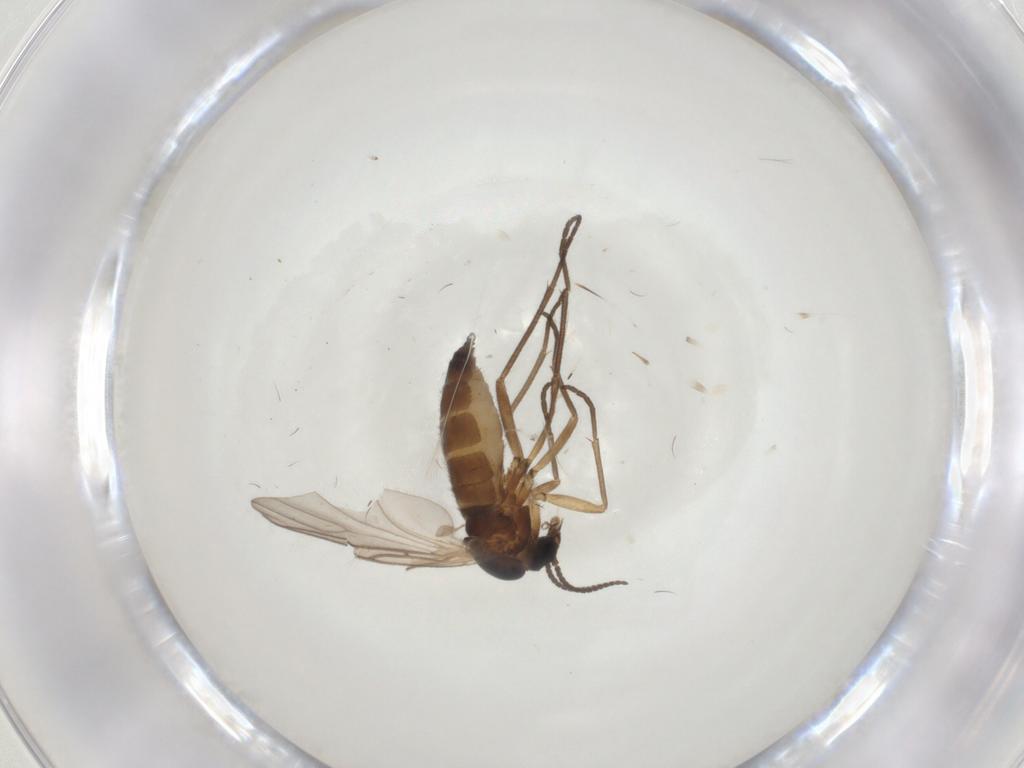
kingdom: Animalia
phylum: Arthropoda
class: Insecta
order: Diptera
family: Sciaridae
